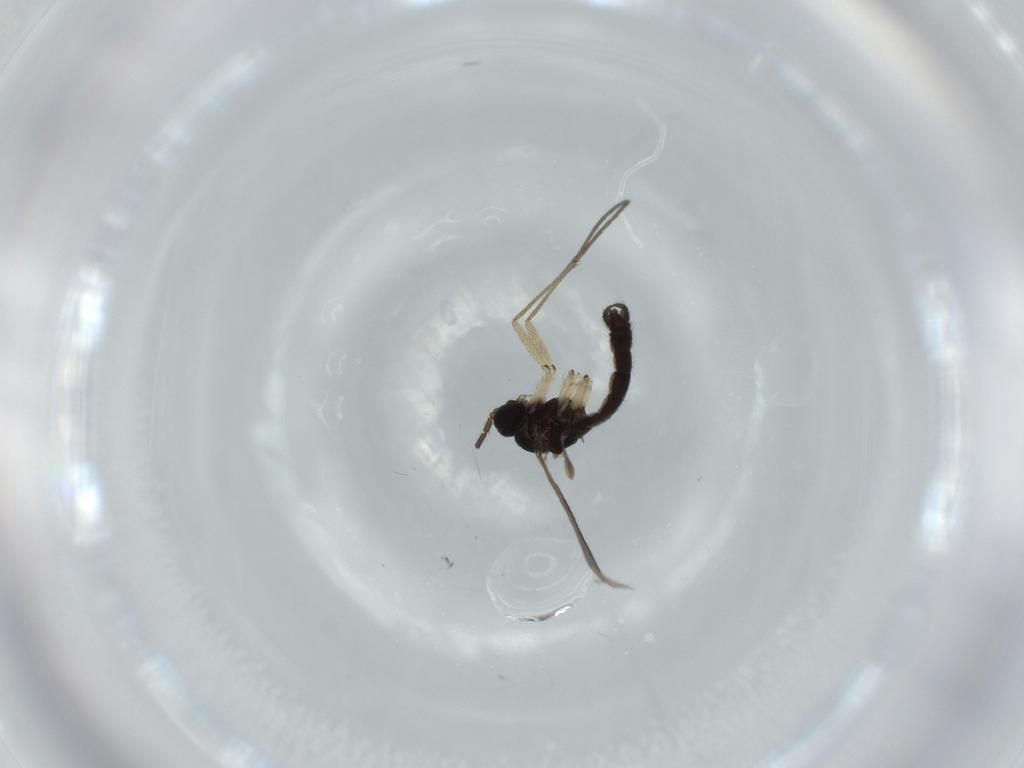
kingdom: Animalia
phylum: Arthropoda
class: Insecta
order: Diptera
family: Sciaridae
